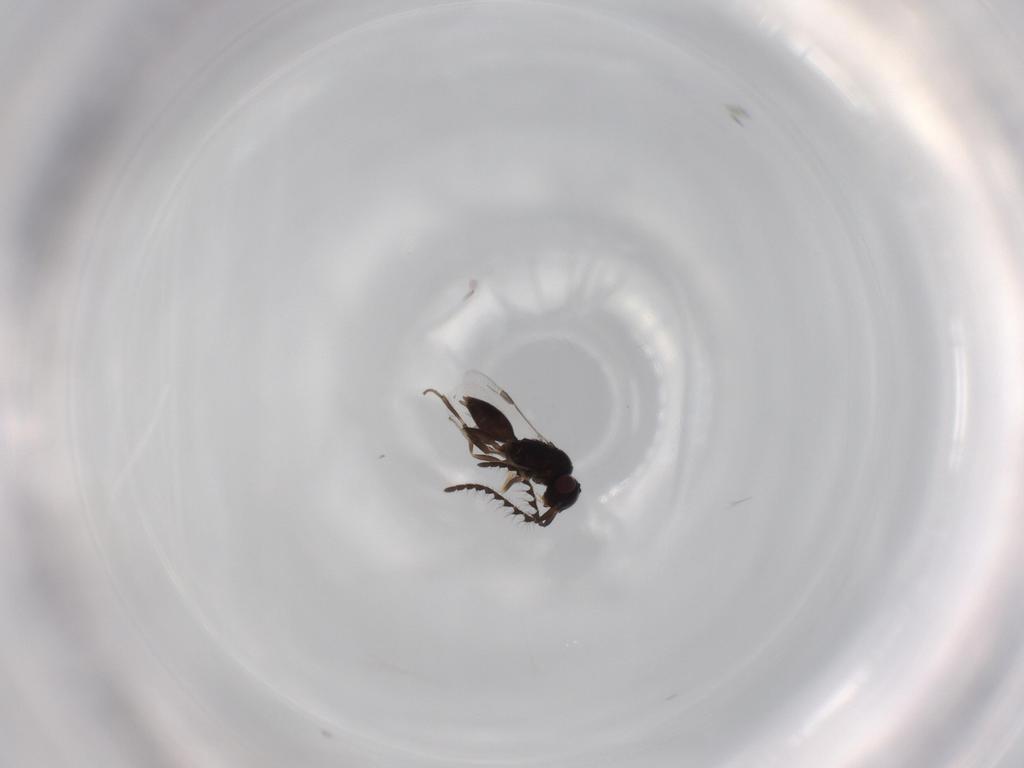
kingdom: Animalia
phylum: Arthropoda
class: Insecta
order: Hymenoptera
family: Megaspilidae
